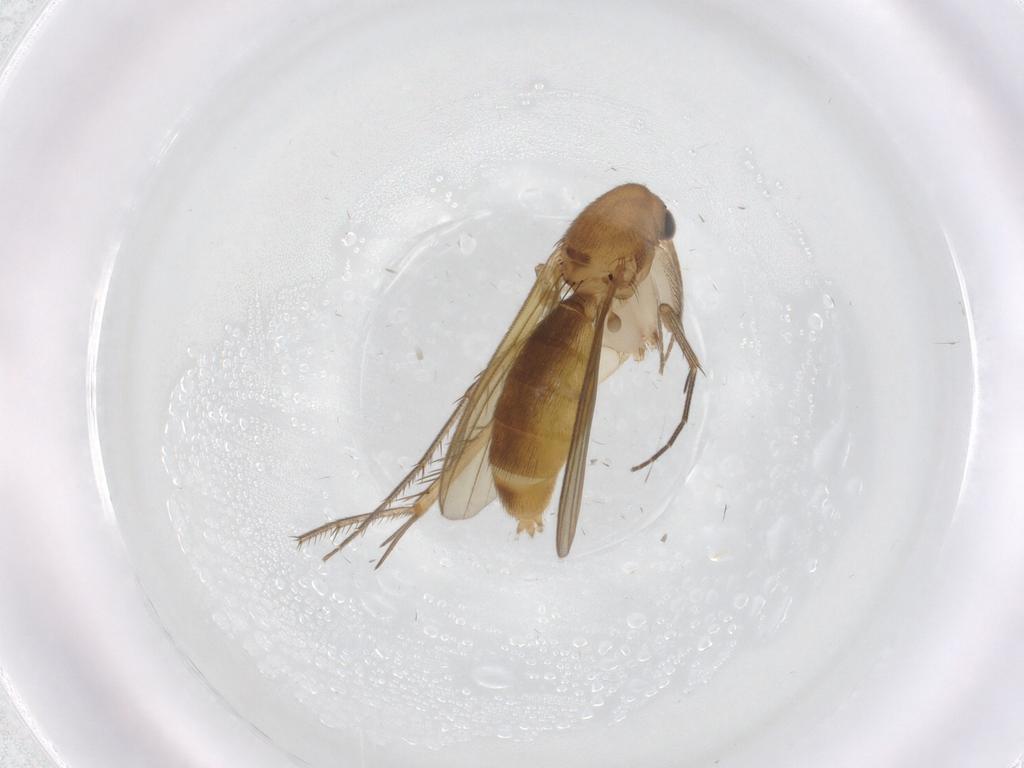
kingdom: Animalia
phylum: Arthropoda
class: Insecta
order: Diptera
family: Mycetophilidae
